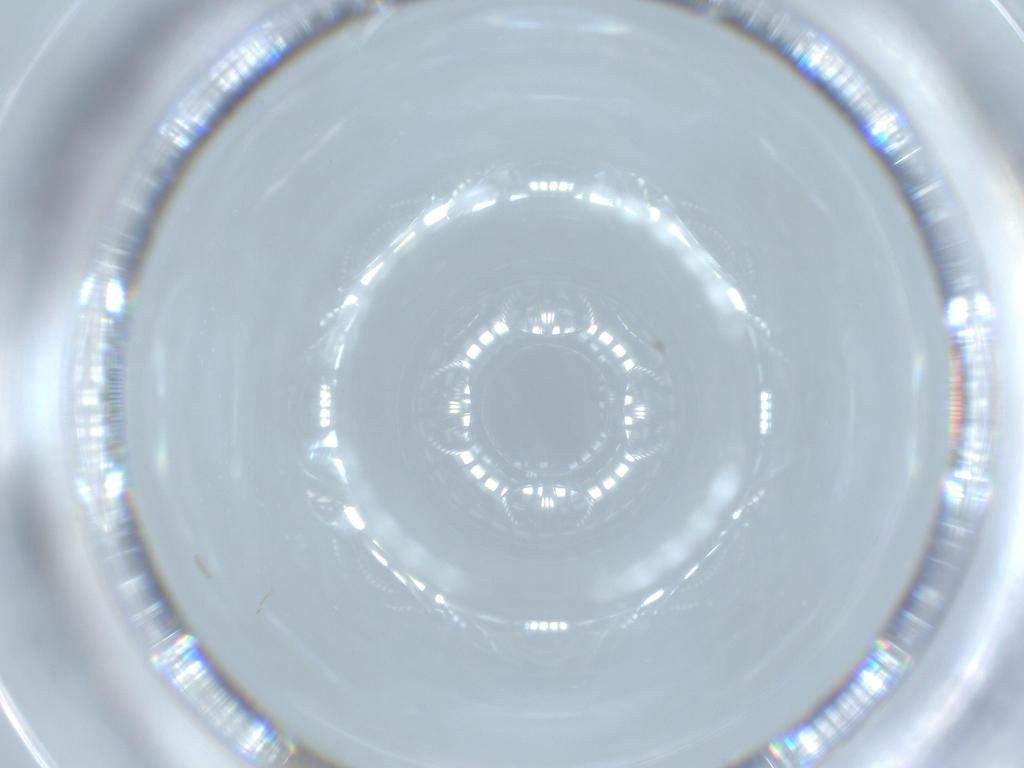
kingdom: Animalia
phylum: Arthropoda
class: Insecta
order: Hymenoptera
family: Aphelinidae
